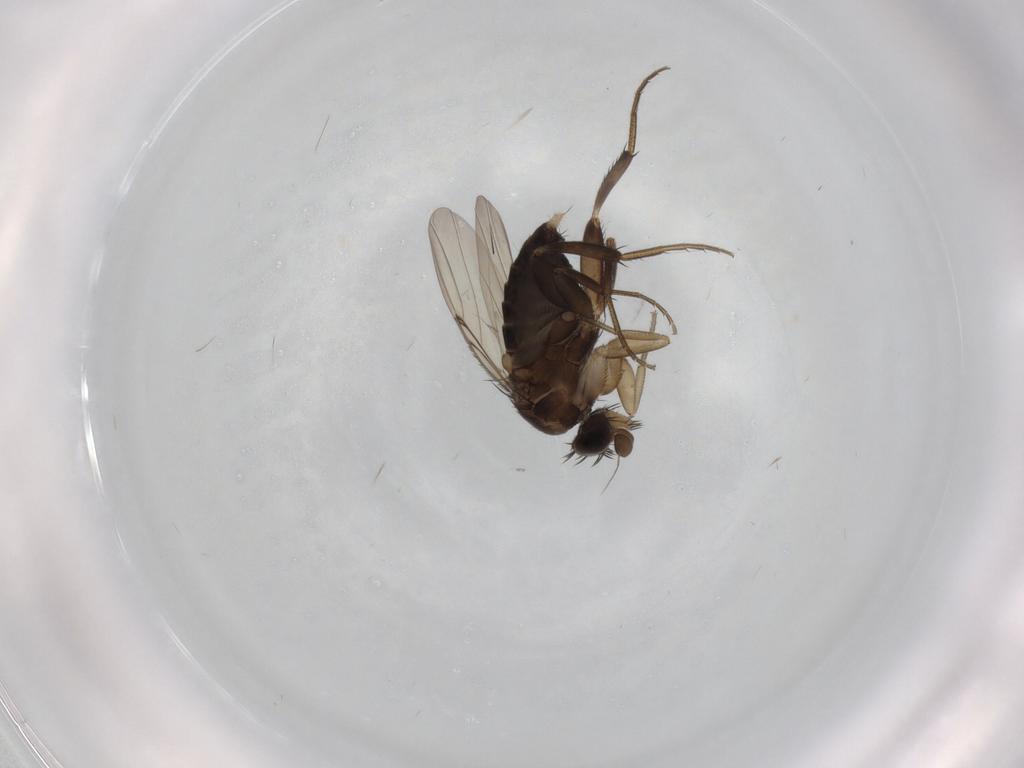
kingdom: Animalia
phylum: Arthropoda
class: Insecta
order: Diptera
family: Phoridae
